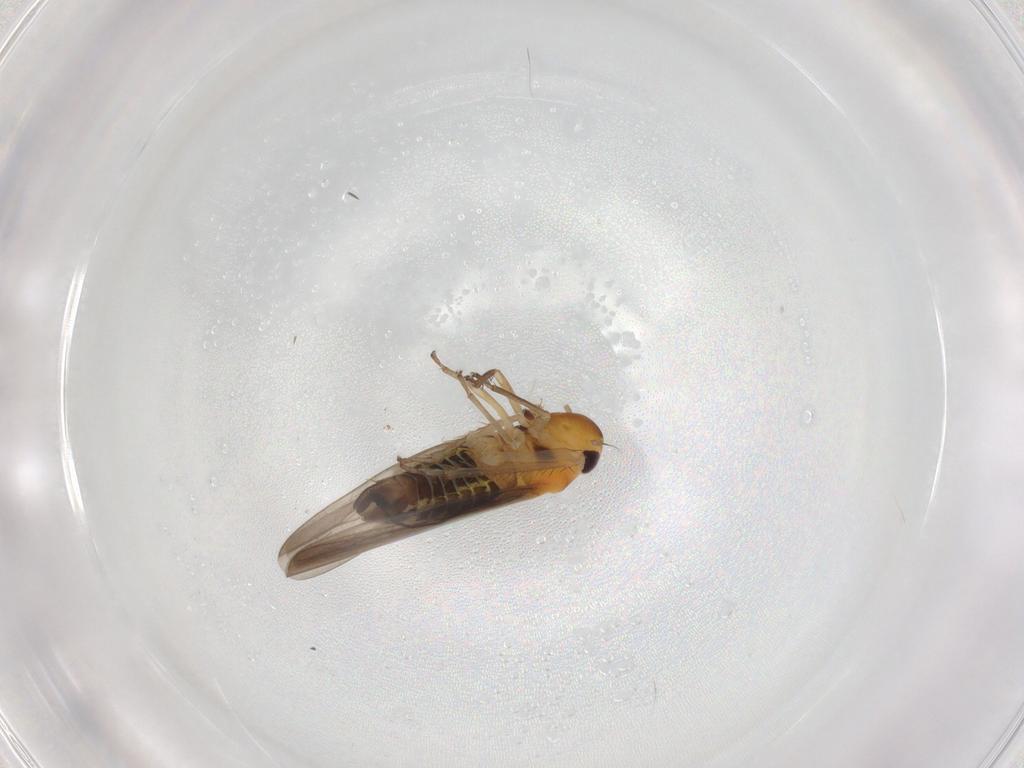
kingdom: Animalia
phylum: Arthropoda
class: Insecta
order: Hemiptera
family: Cicadellidae
